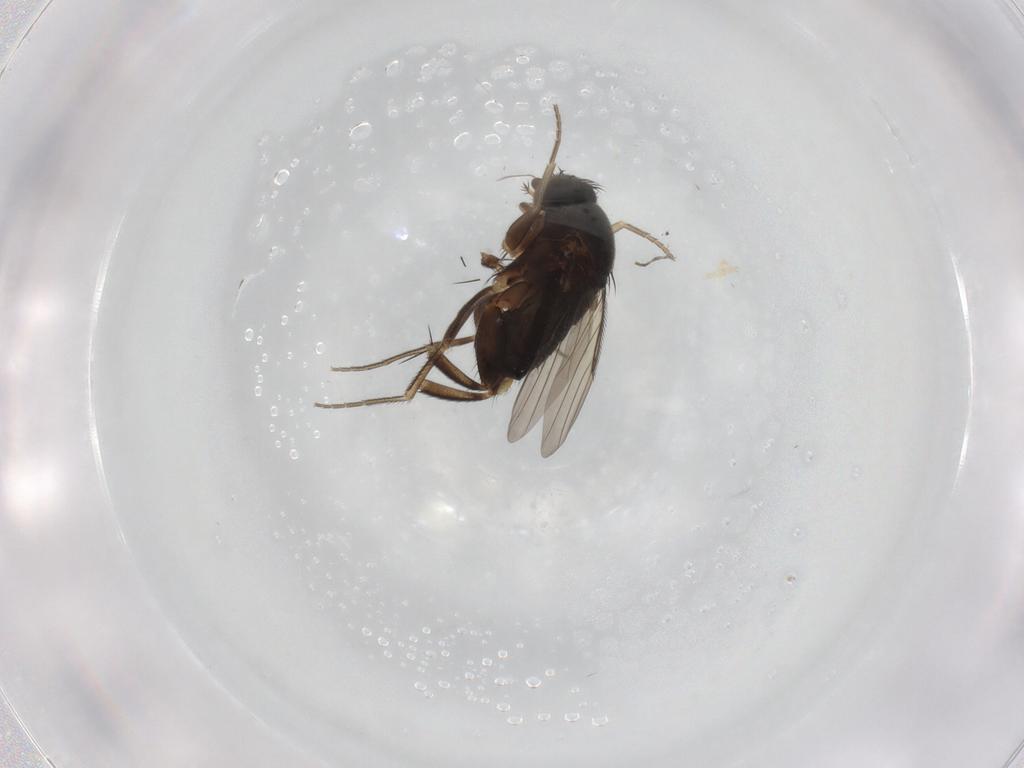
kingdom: Animalia
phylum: Arthropoda
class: Insecta
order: Diptera
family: Phoridae
